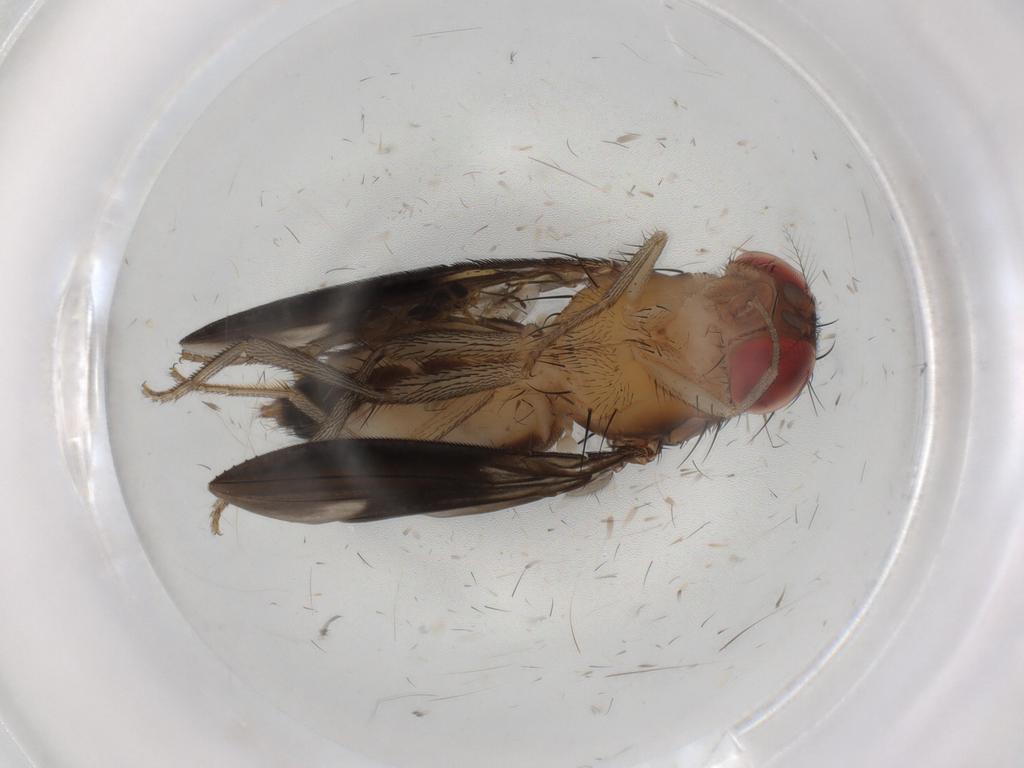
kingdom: Animalia
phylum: Arthropoda
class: Insecta
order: Diptera
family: Drosophilidae
